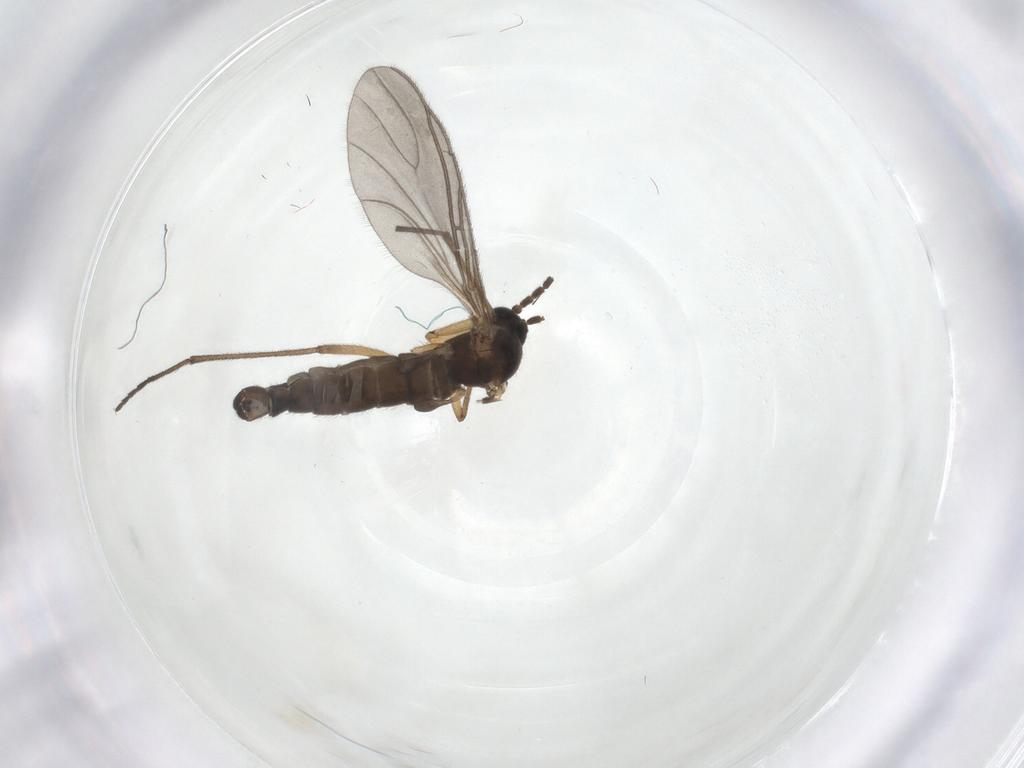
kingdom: Animalia
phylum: Arthropoda
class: Insecta
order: Diptera
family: Sciaridae
